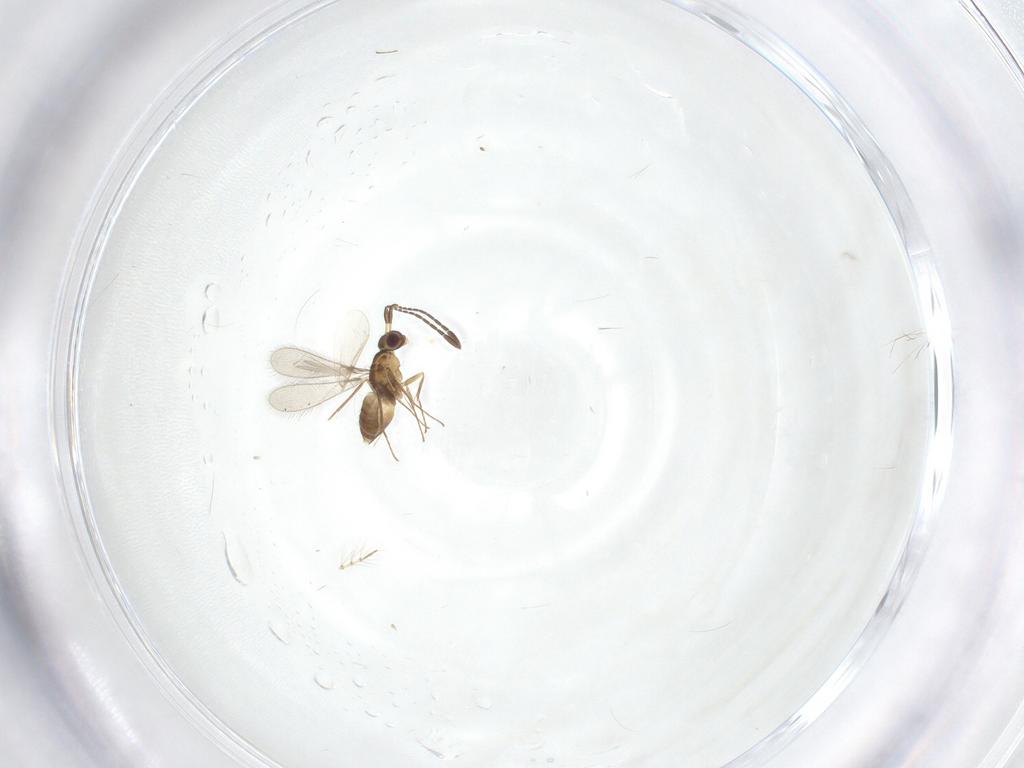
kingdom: Animalia
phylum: Arthropoda
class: Insecta
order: Hymenoptera
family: Mymaridae
